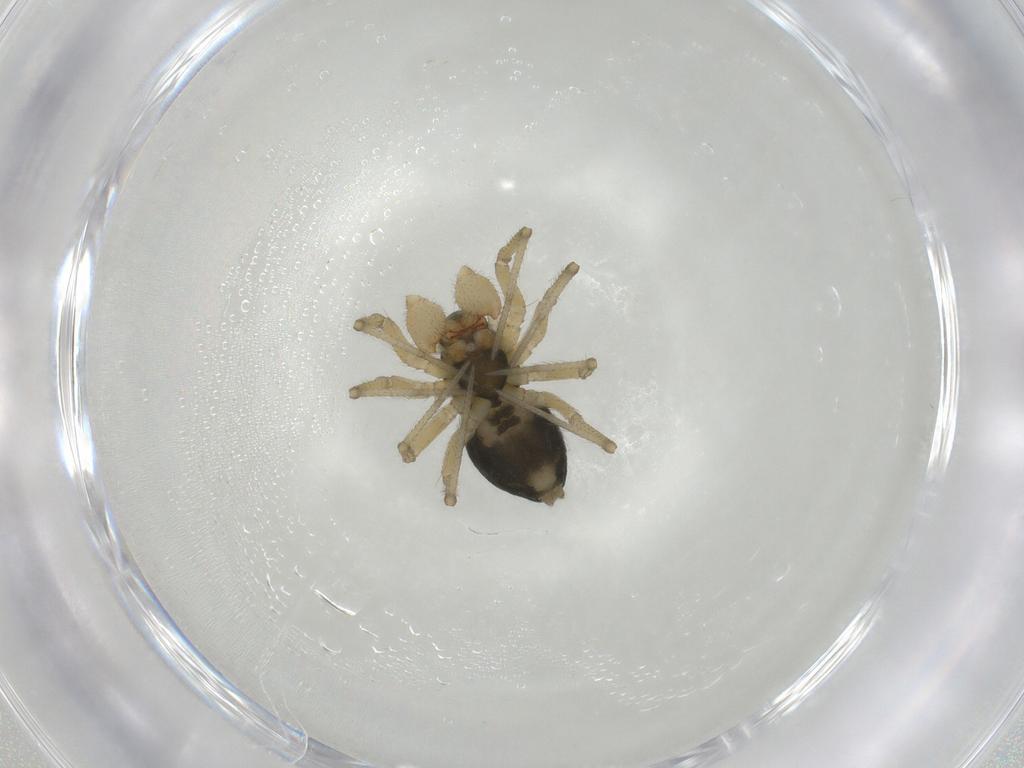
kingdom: Animalia
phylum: Arthropoda
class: Arachnida
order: Araneae
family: Linyphiidae
